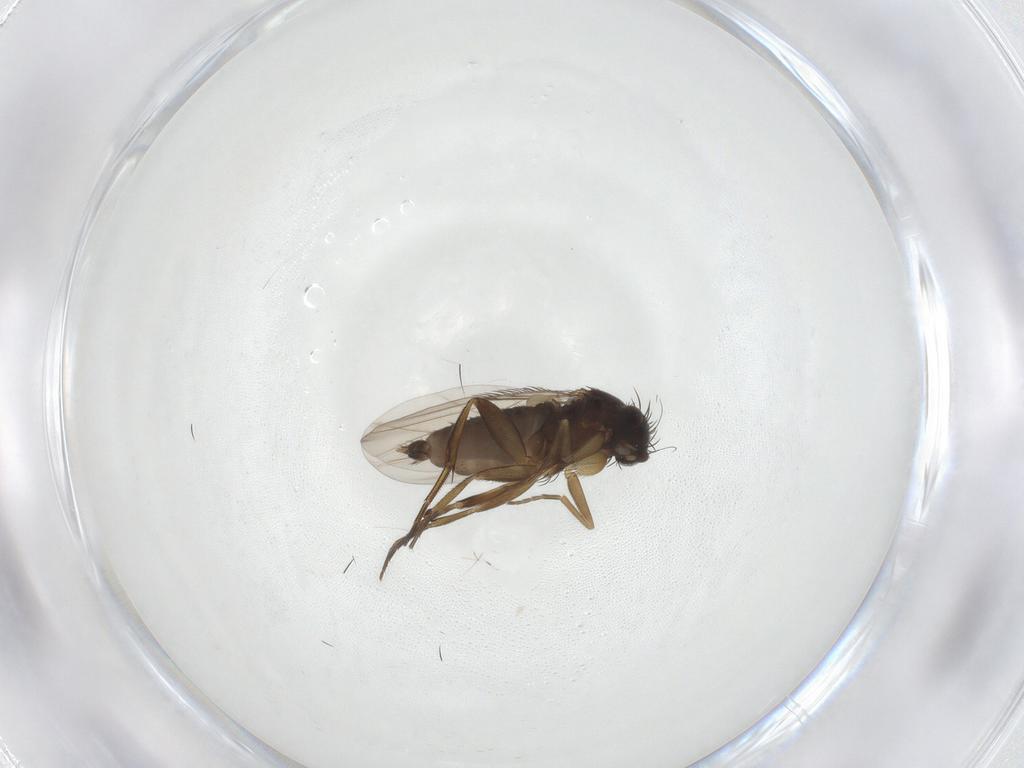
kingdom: Animalia
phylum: Arthropoda
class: Insecta
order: Diptera
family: Phoridae
